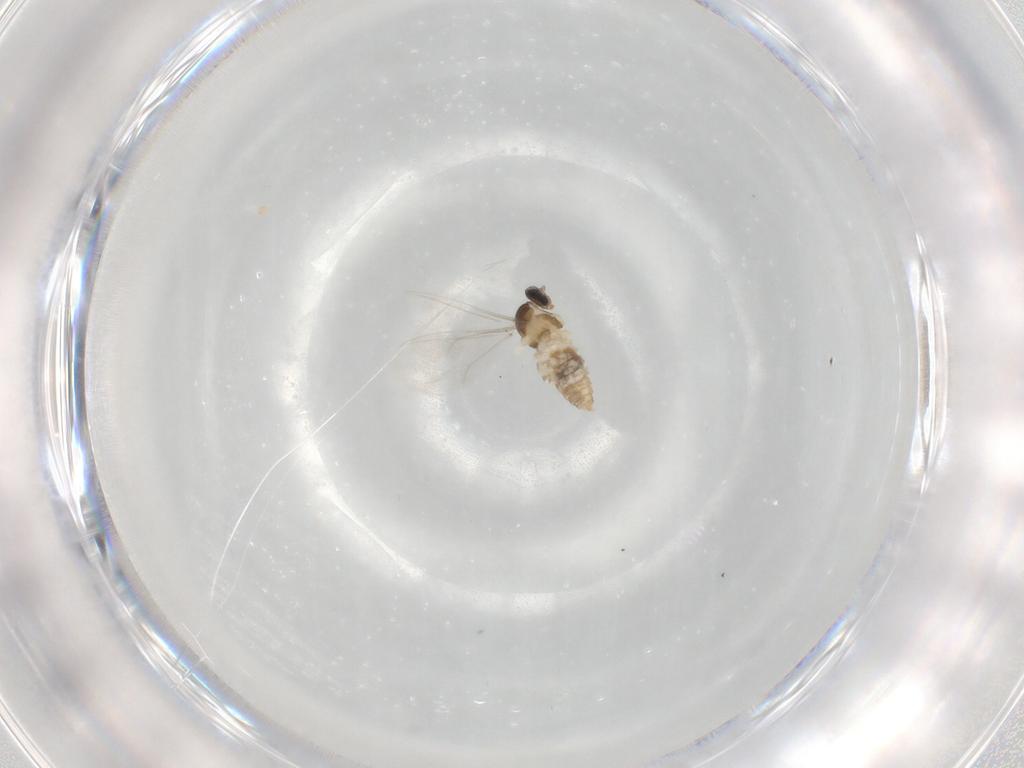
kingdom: Animalia
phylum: Arthropoda
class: Insecta
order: Diptera
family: Cecidomyiidae
